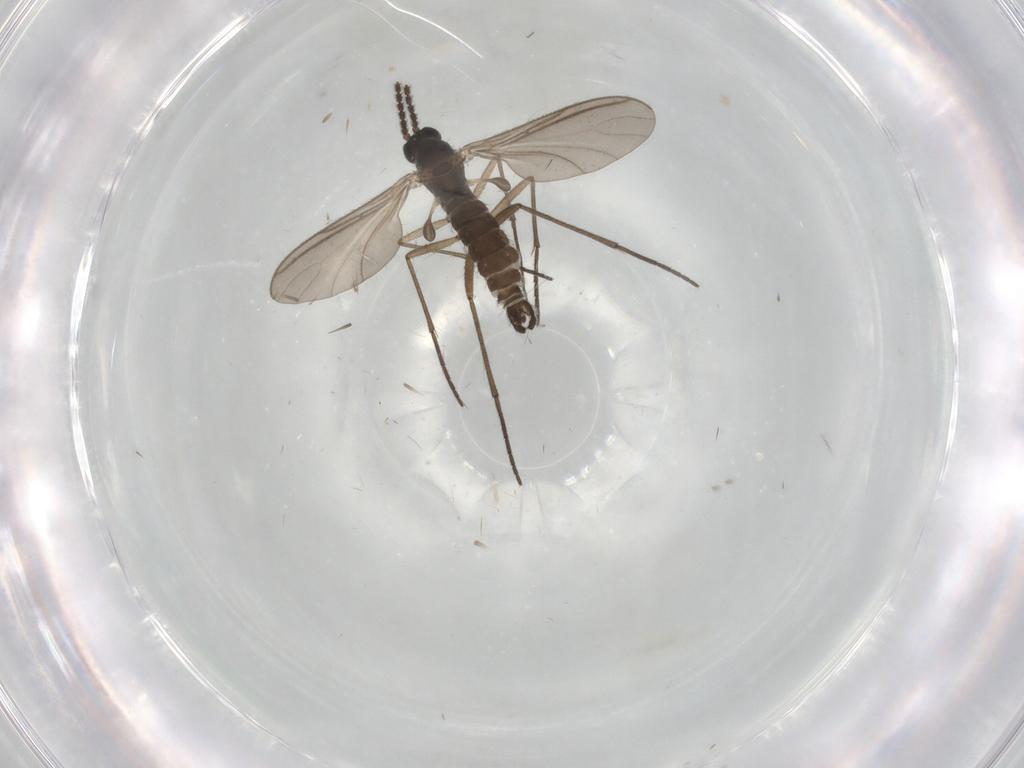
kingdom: Animalia
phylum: Arthropoda
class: Insecta
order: Diptera
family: Sciaridae
